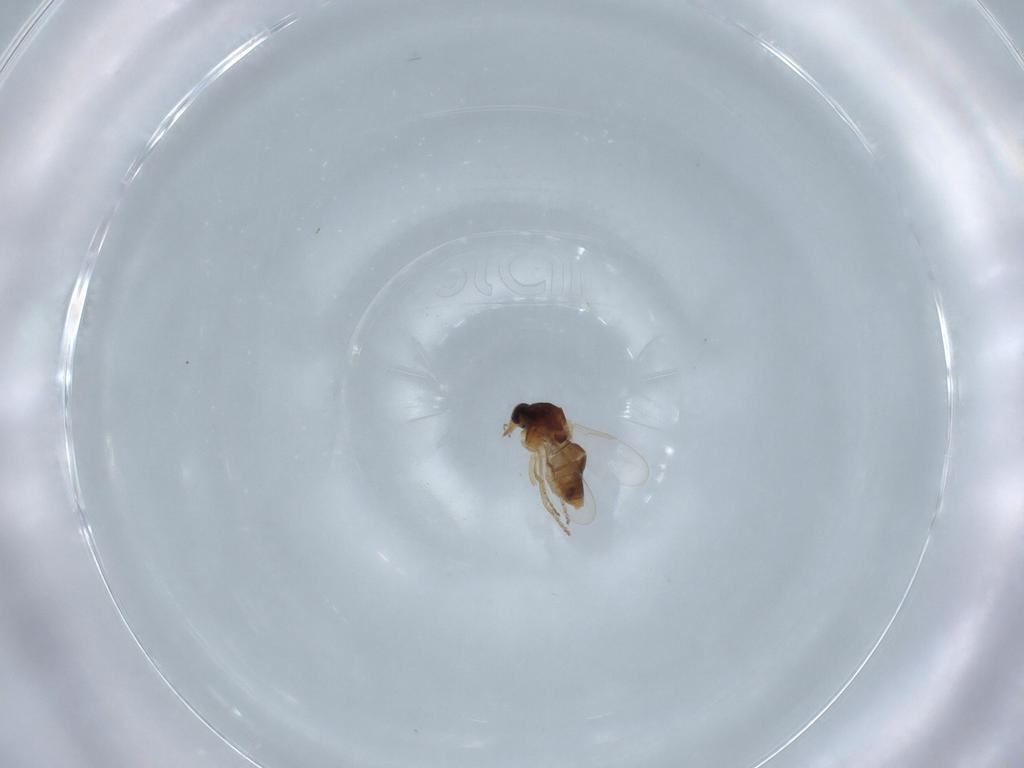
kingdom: Animalia
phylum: Arthropoda
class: Insecta
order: Diptera
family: Ceratopogonidae
